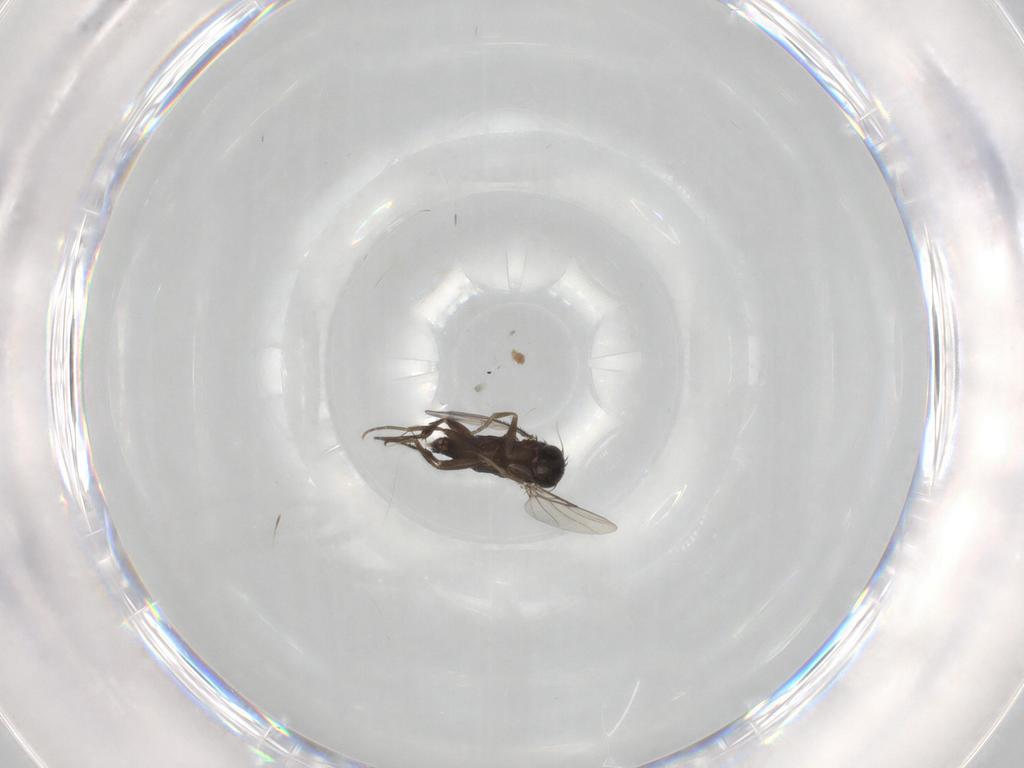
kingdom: Animalia
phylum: Arthropoda
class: Insecta
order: Diptera
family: Phoridae
